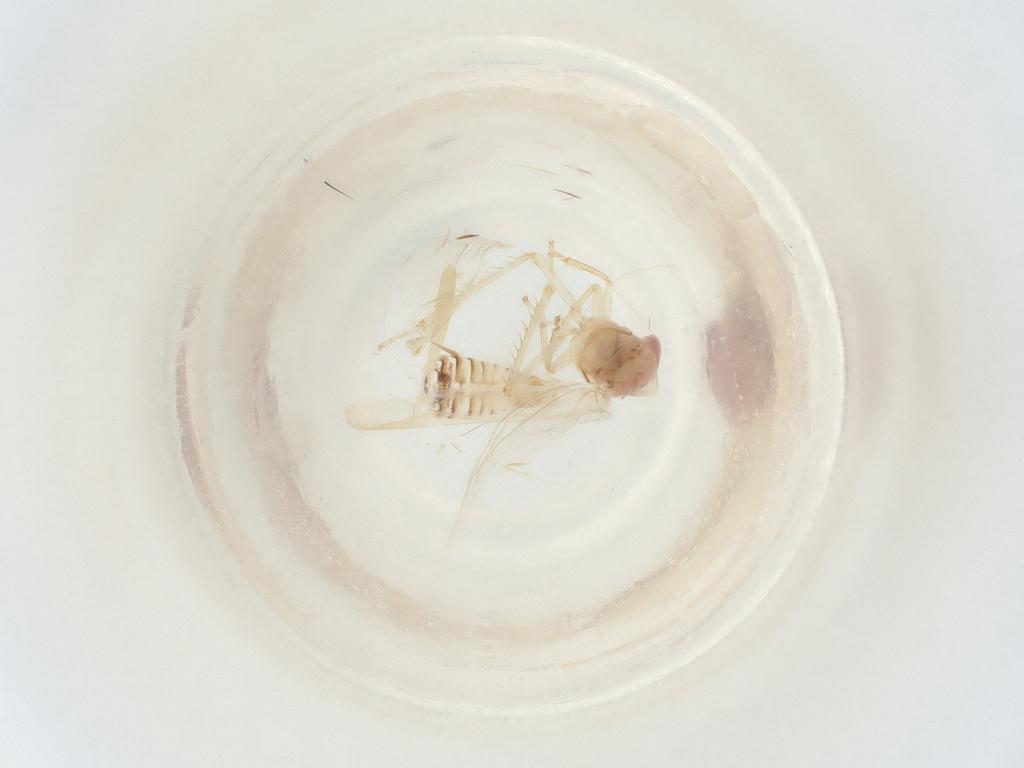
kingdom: Animalia
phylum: Arthropoda
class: Insecta
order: Hemiptera
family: Cicadellidae
